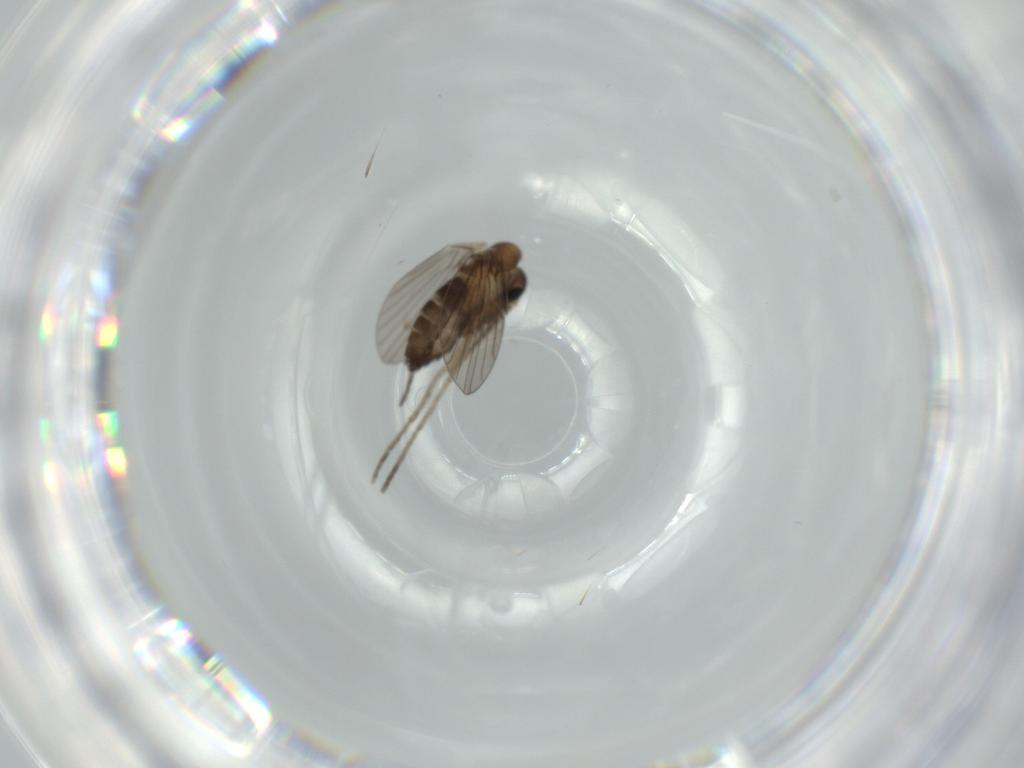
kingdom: Animalia
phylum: Arthropoda
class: Insecta
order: Diptera
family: Psychodidae
